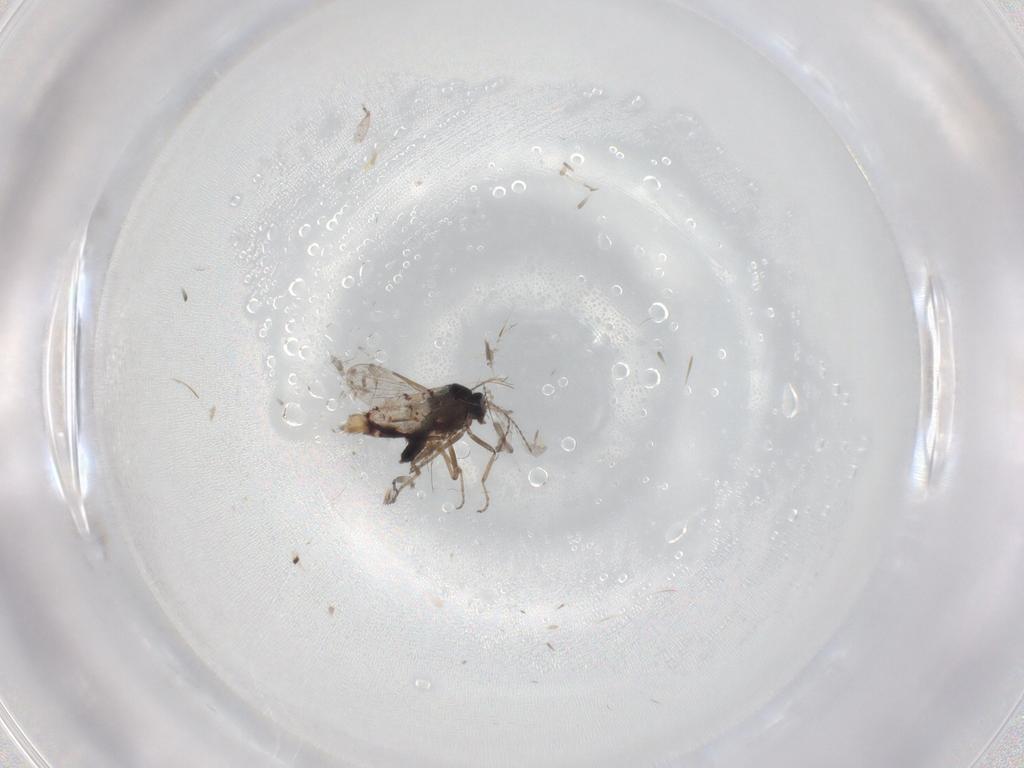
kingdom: Animalia
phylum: Arthropoda
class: Insecta
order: Diptera
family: Ceratopogonidae
